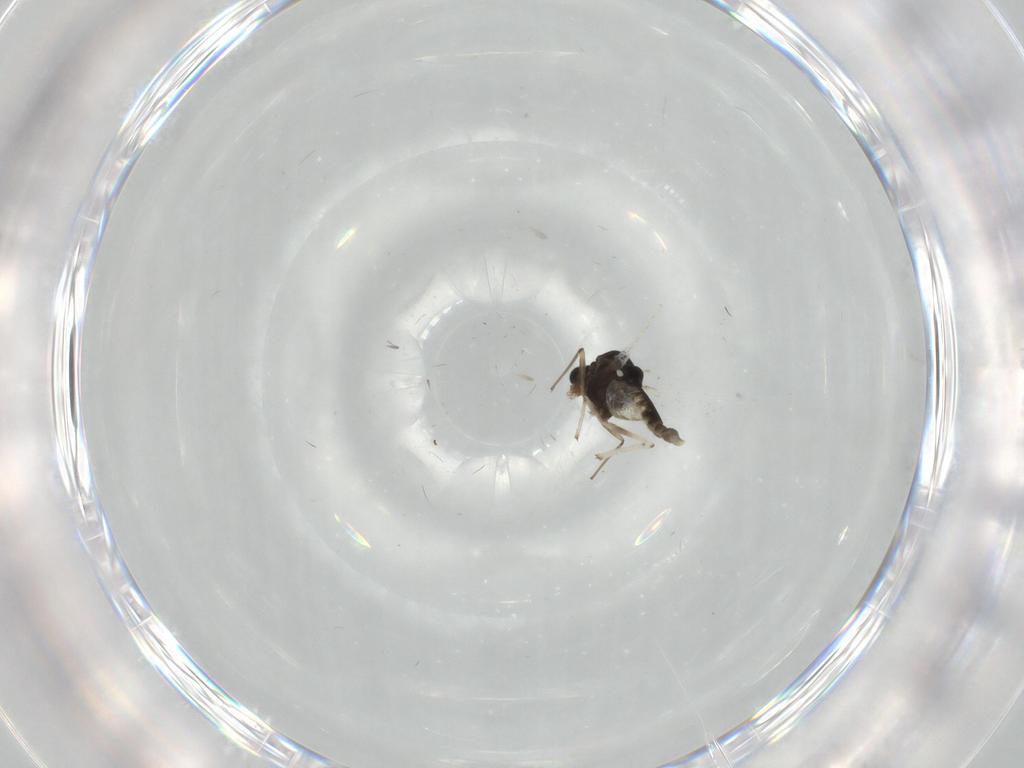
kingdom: Animalia
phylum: Arthropoda
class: Insecta
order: Diptera
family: Chironomidae
